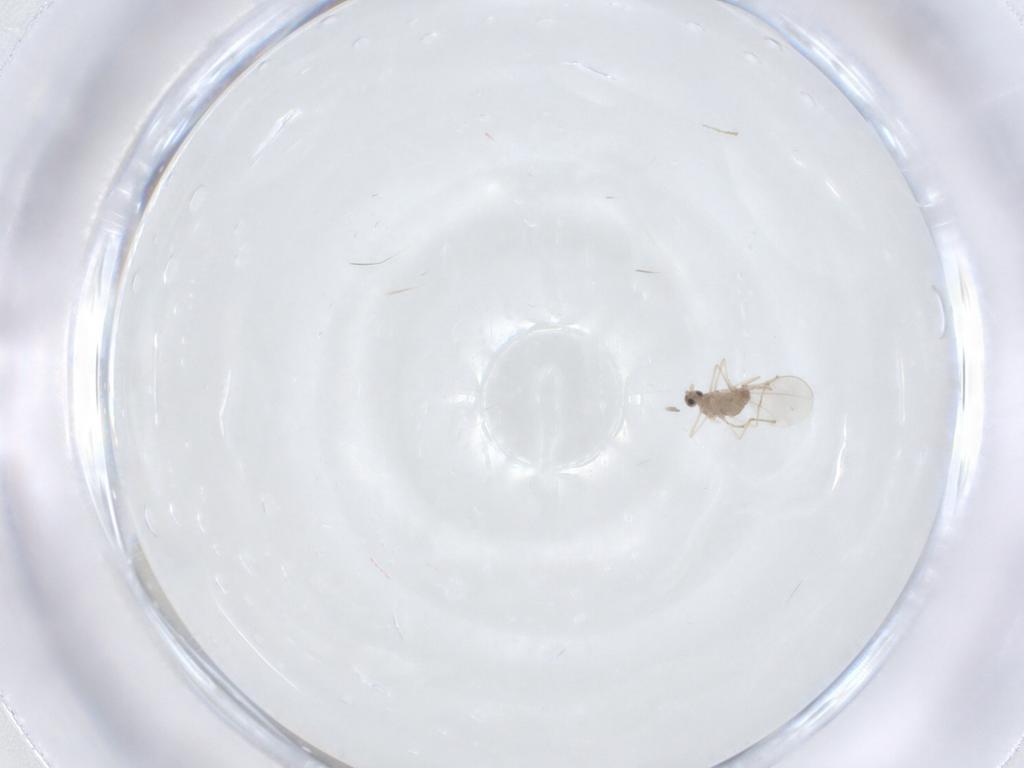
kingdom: Animalia
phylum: Arthropoda
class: Insecta
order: Diptera
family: Cecidomyiidae
